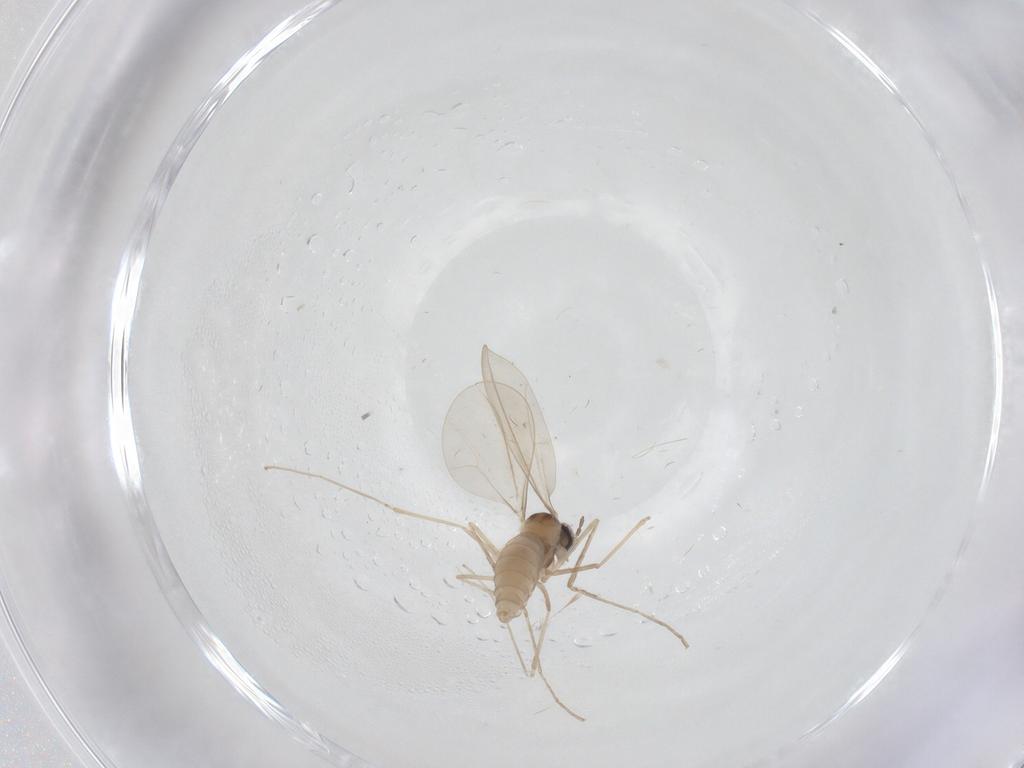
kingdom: Animalia
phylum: Arthropoda
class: Insecta
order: Diptera
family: Cecidomyiidae
